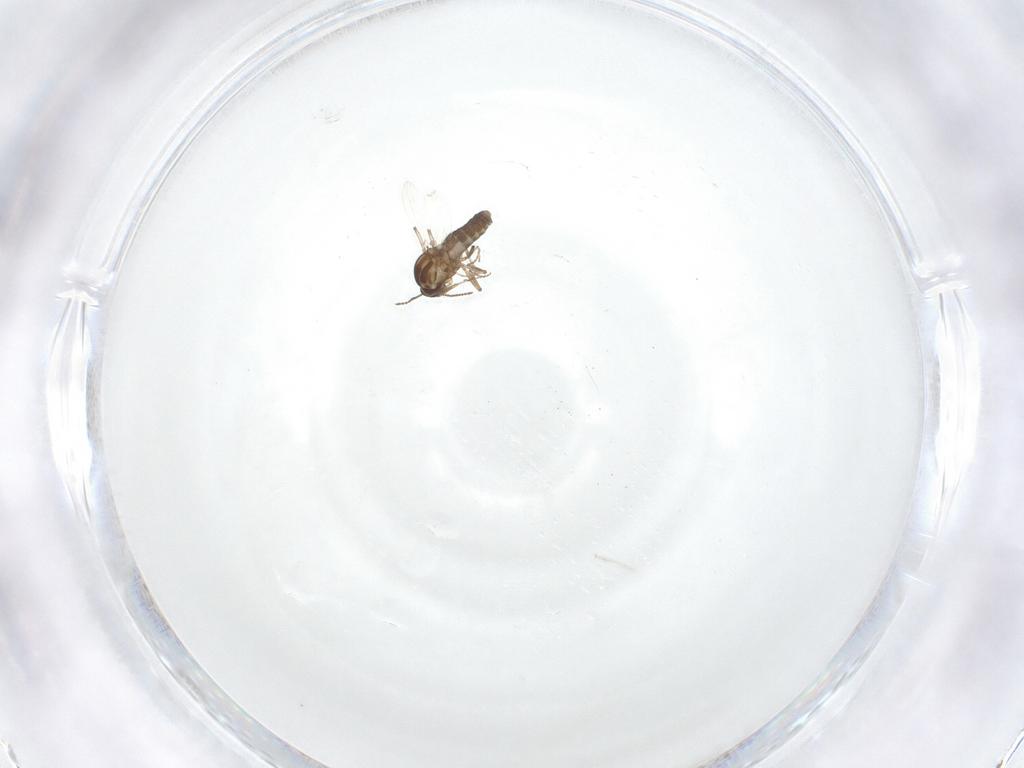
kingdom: Animalia
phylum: Arthropoda
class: Insecta
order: Diptera
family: Ceratopogonidae
